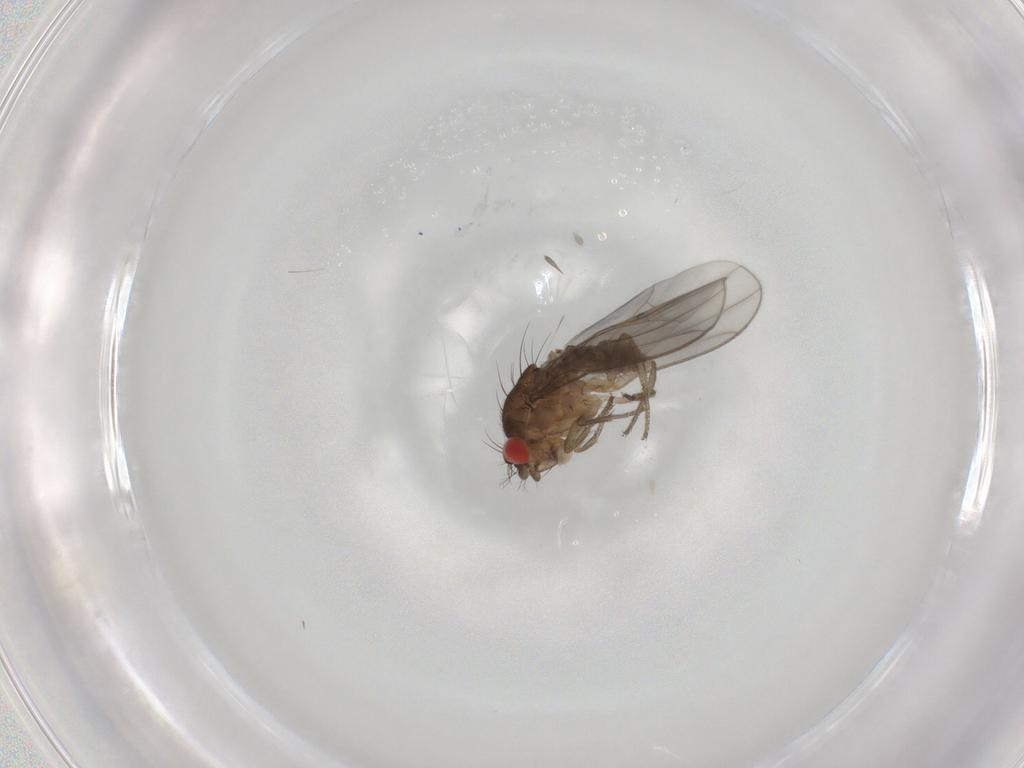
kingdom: Animalia
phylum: Arthropoda
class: Insecta
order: Diptera
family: Drosophilidae
